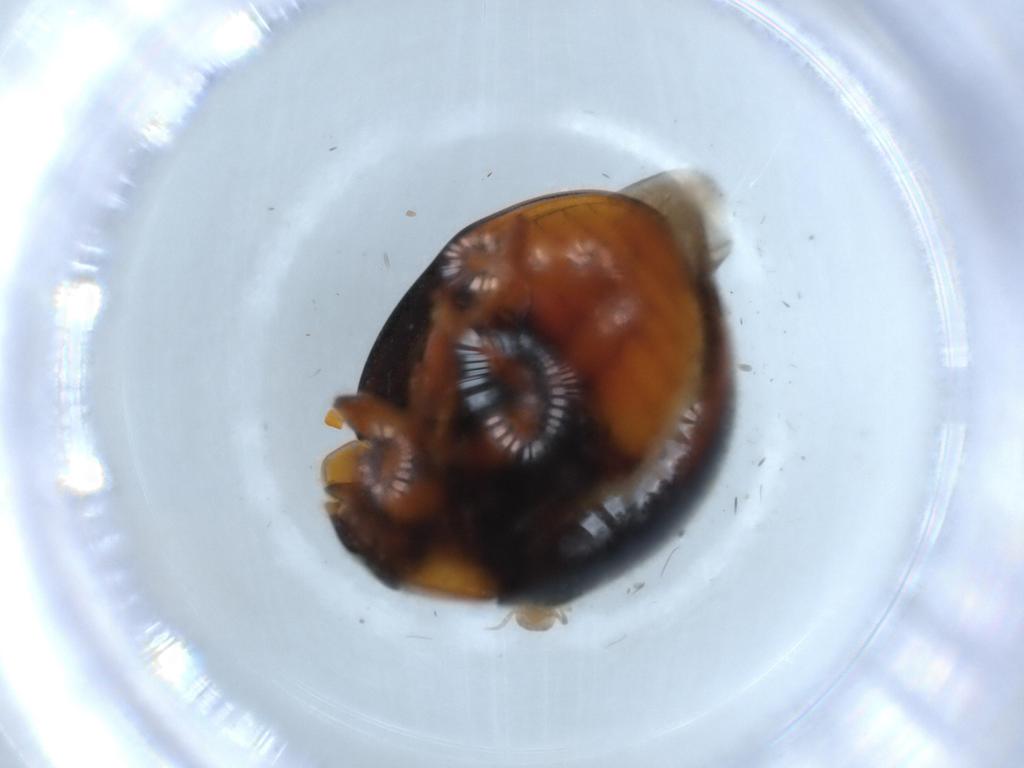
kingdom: Animalia
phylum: Arthropoda
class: Insecta
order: Coleoptera
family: Coccinellidae
